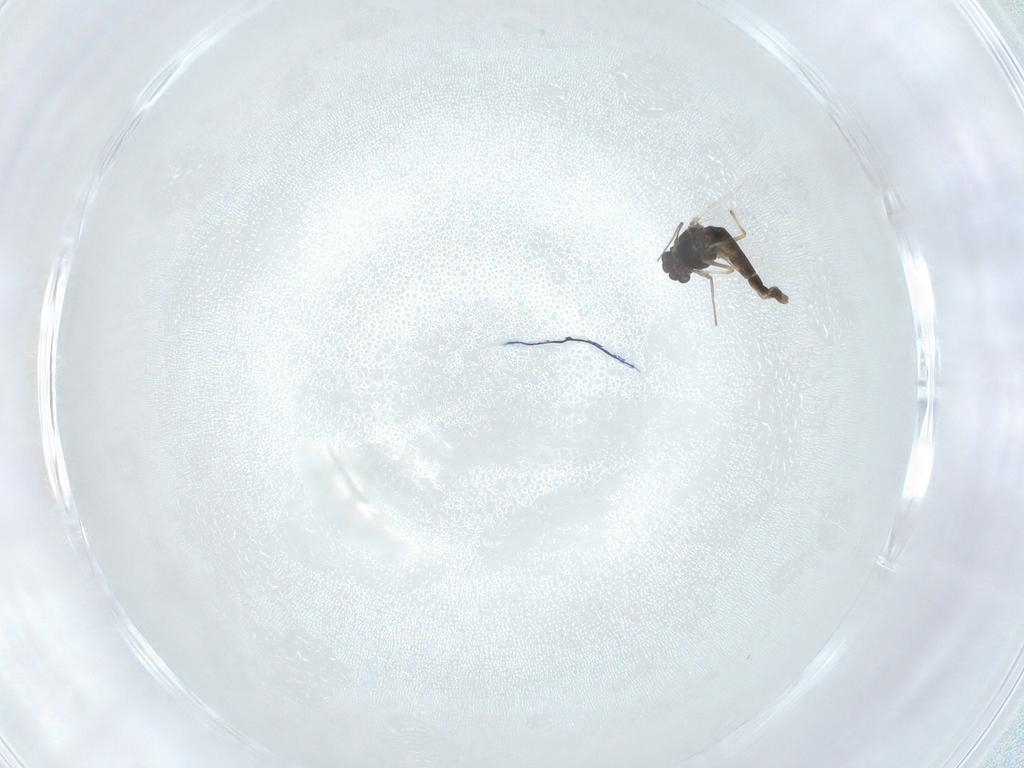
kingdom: Animalia
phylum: Arthropoda
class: Insecta
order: Diptera
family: Chironomidae
